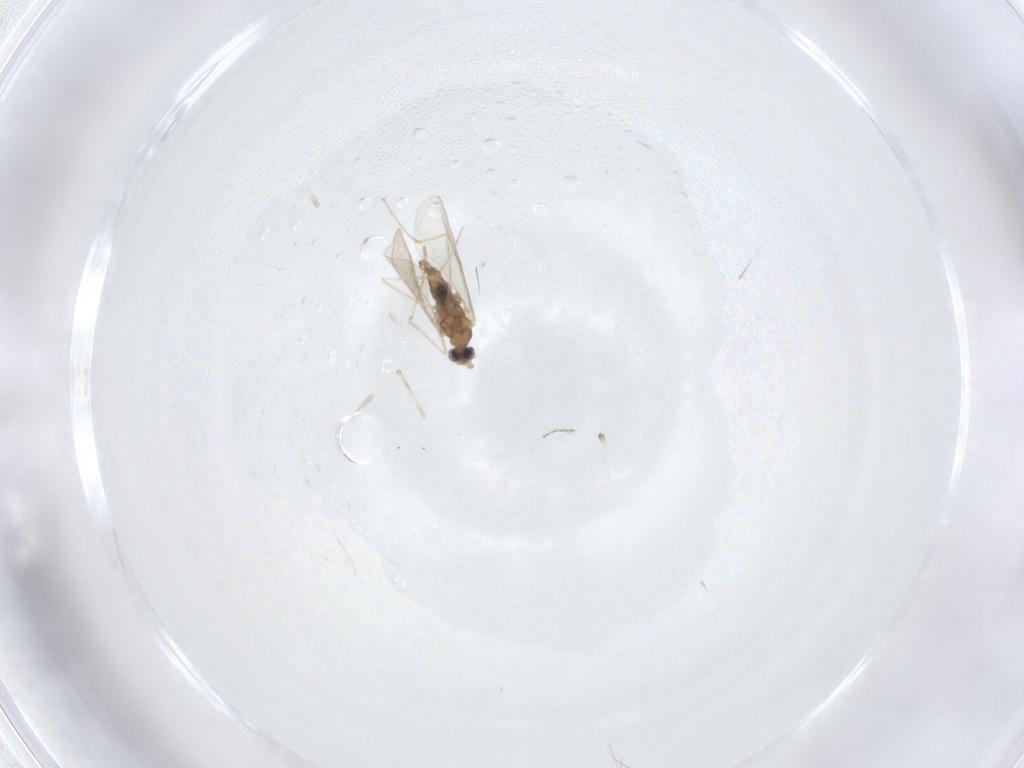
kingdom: Animalia
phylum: Arthropoda
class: Insecta
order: Diptera
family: Cecidomyiidae
